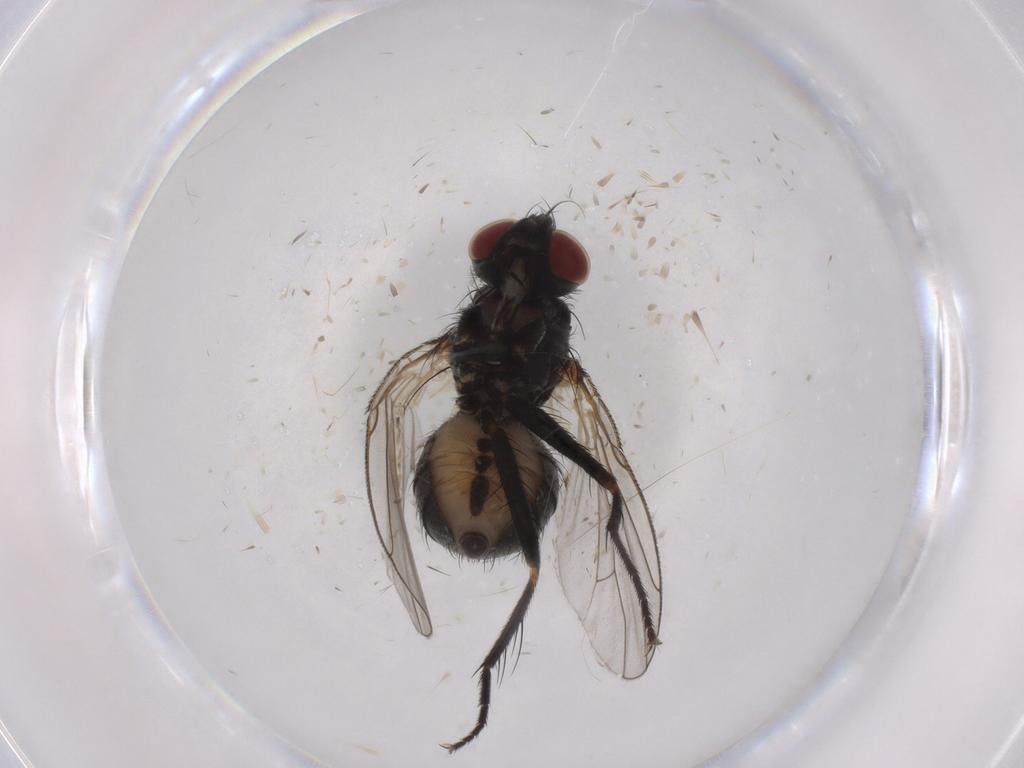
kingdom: Animalia
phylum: Arthropoda
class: Insecta
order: Diptera
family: Muscidae
